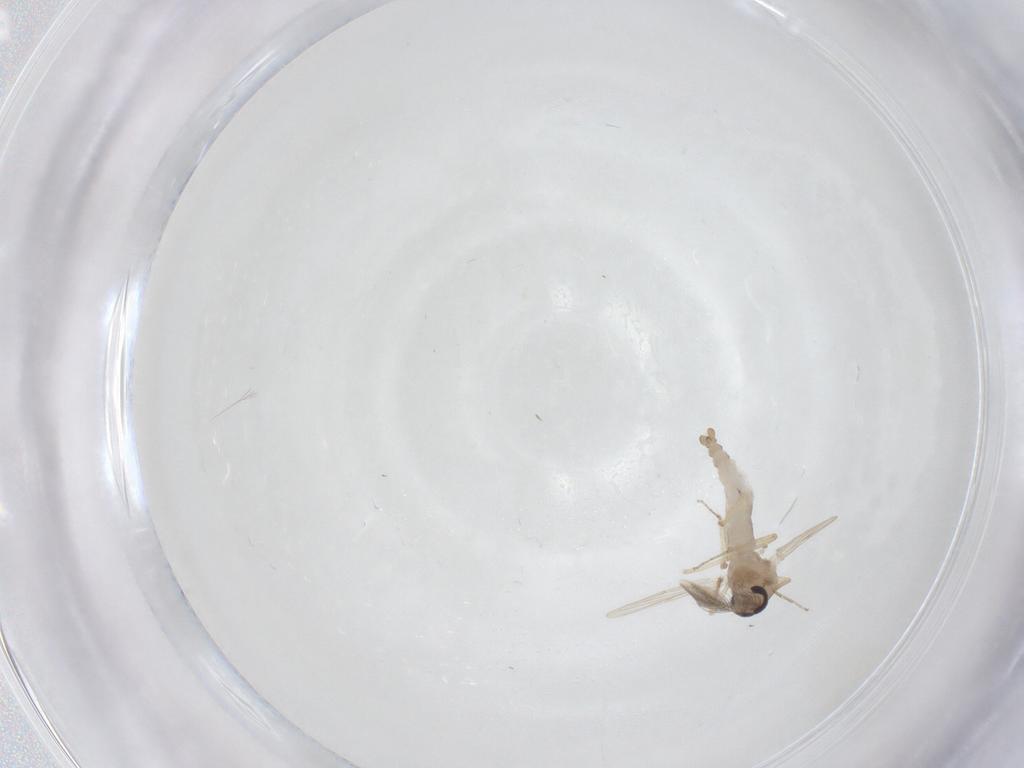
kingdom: Animalia
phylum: Arthropoda
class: Insecta
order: Diptera
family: Ceratopogonidae
